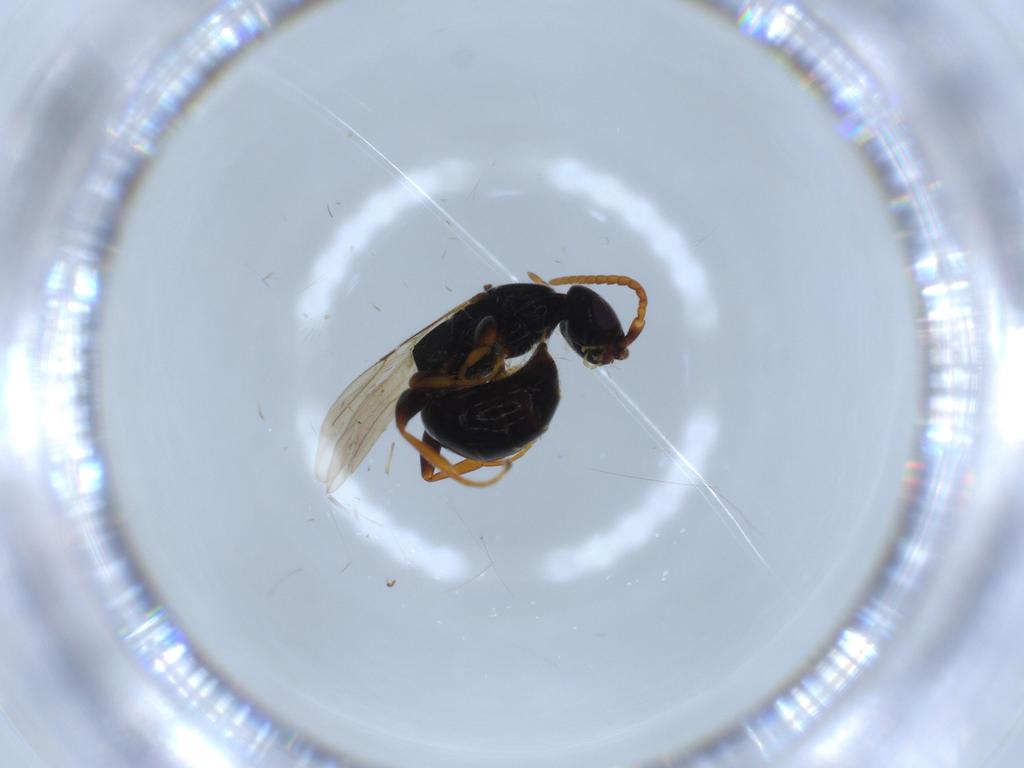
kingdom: Animalia
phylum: Arthropoda
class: Insecta
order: Hymenoptera
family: Bethylidae
